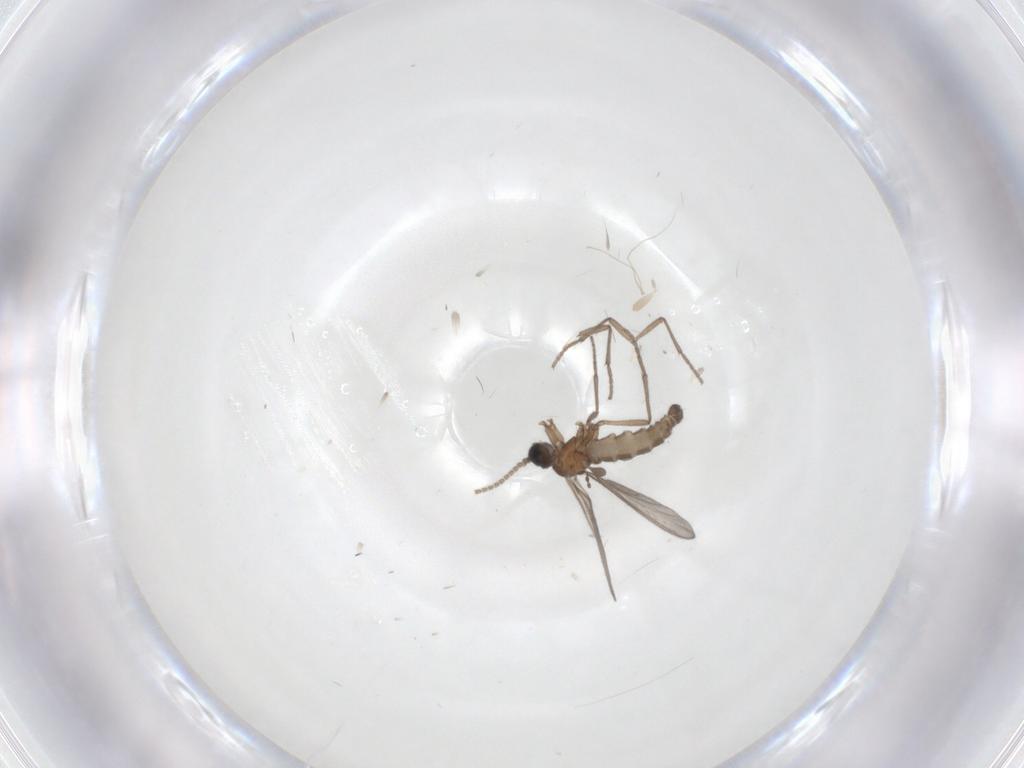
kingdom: Animalia
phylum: Arthropoda
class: Insecta
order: Diptera
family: Sciaridae
